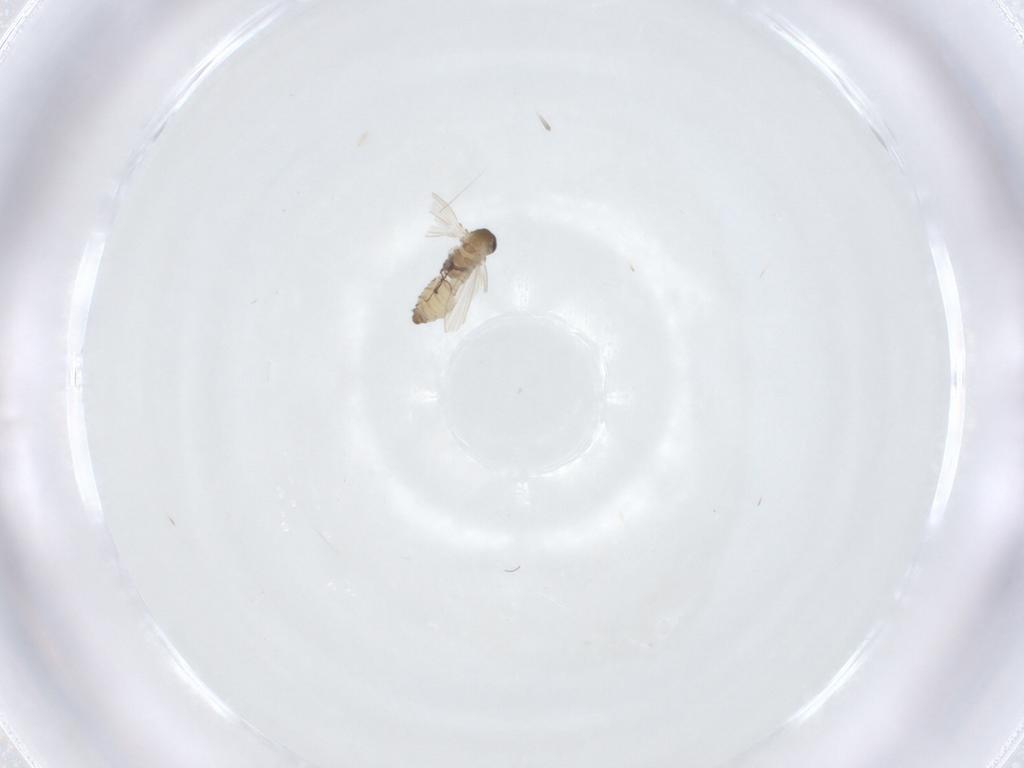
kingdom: Animalia
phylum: Arthropoda
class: Insecta
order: Diptera
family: Psychodidae
